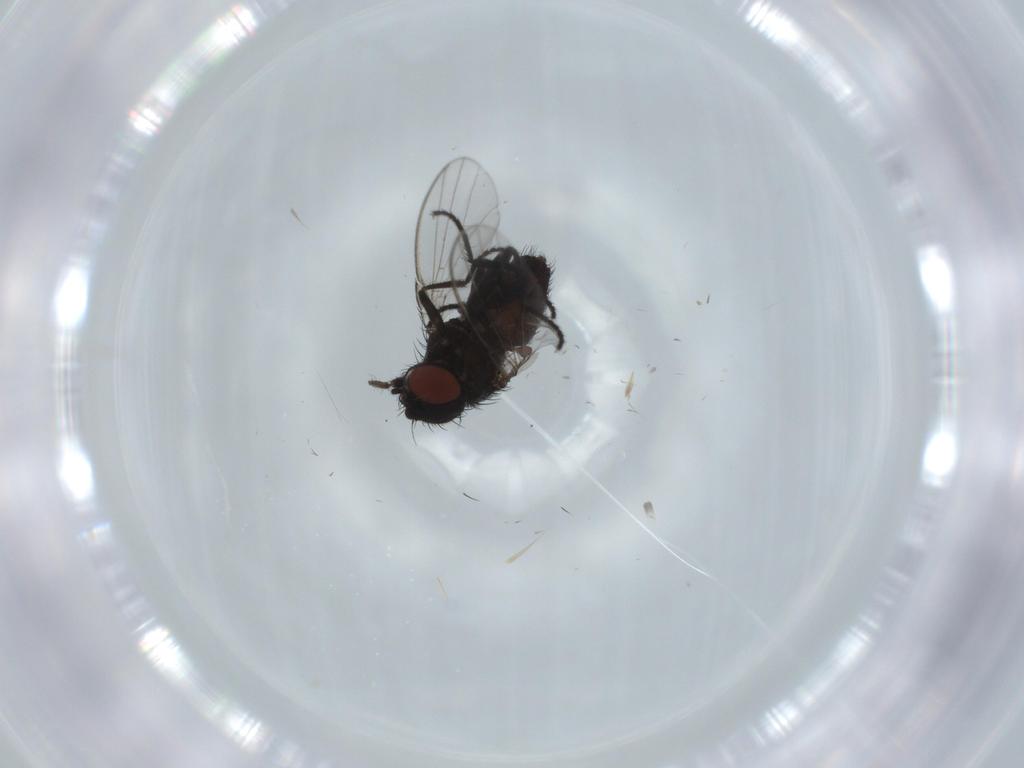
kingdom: Animalia
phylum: Arthropoda
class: Insecta
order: Diptera
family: Milichiidae
